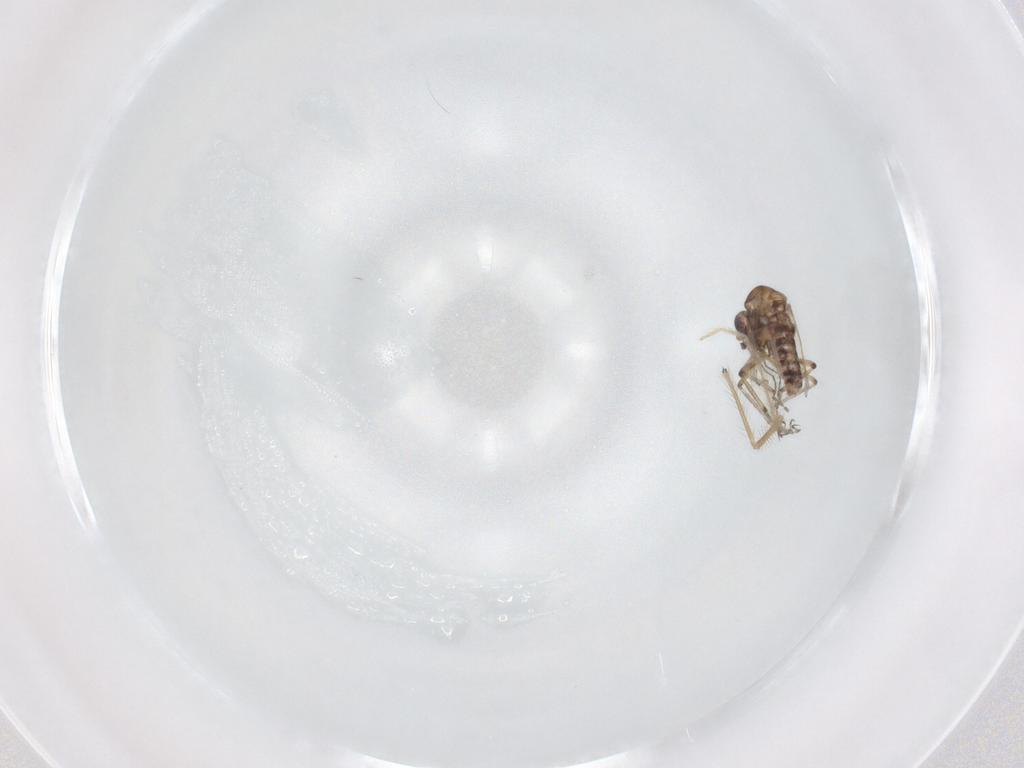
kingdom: Animalia
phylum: Arthropoda
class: Insecta
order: Diptera
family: Chironomidae
